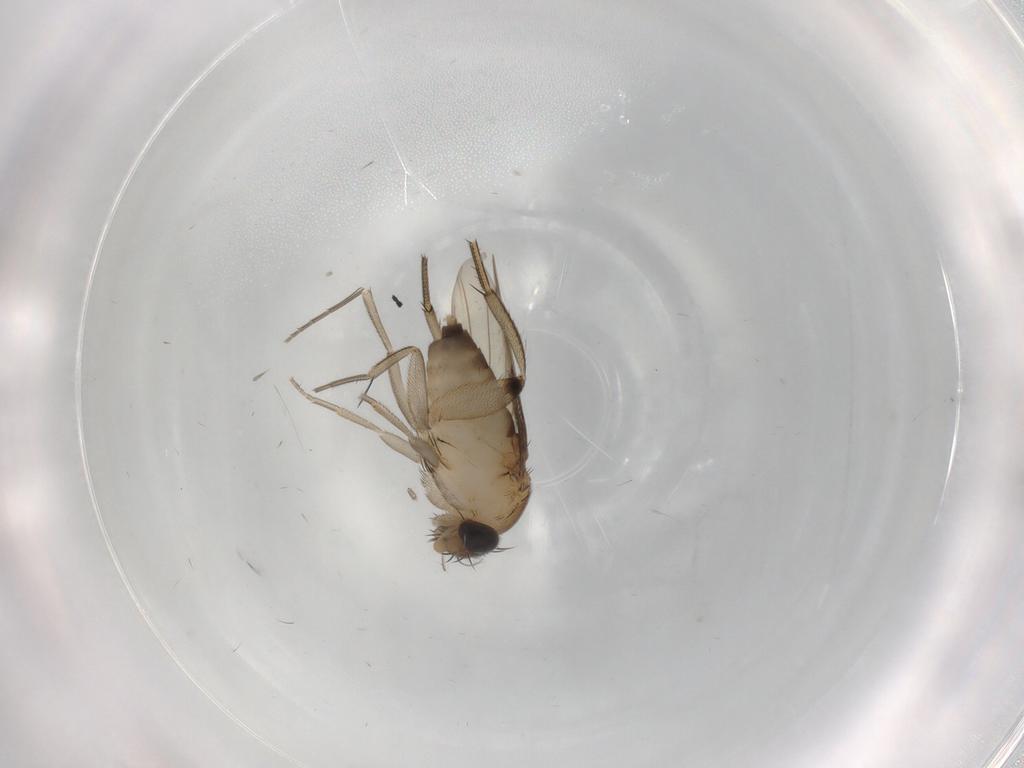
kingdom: Animalia
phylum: Arthropoda
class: Insecta
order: Diptera
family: Phoridae
